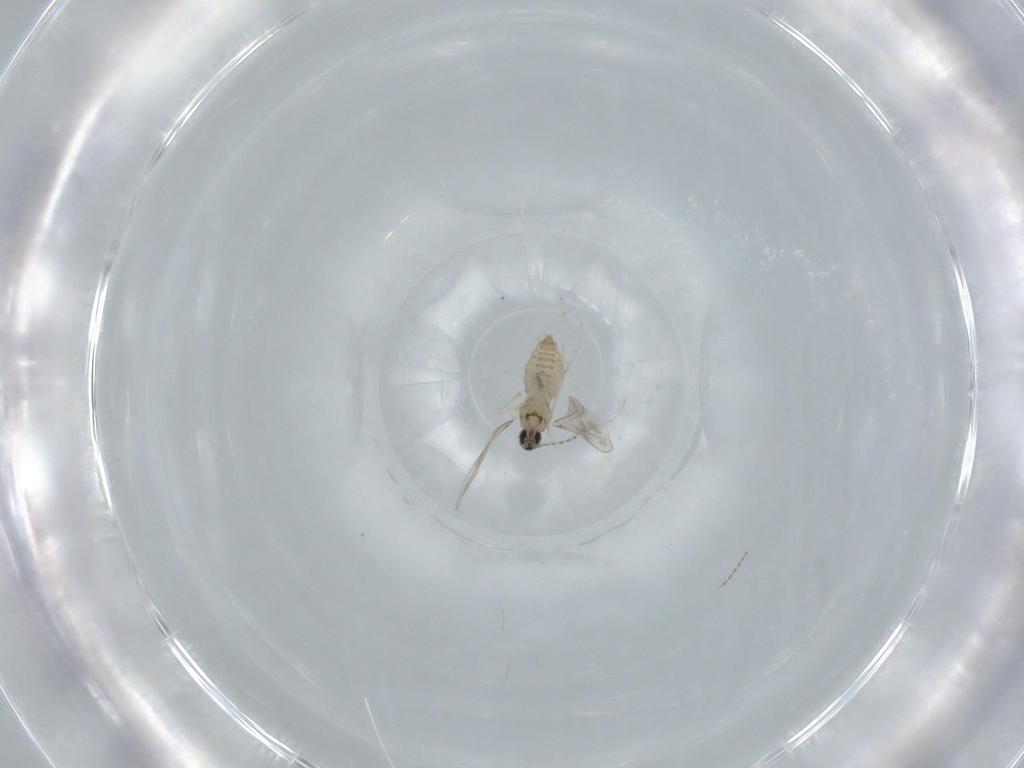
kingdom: Animalia
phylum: Arthropoda
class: Insecta
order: Diptera
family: Cecidomyiidae
